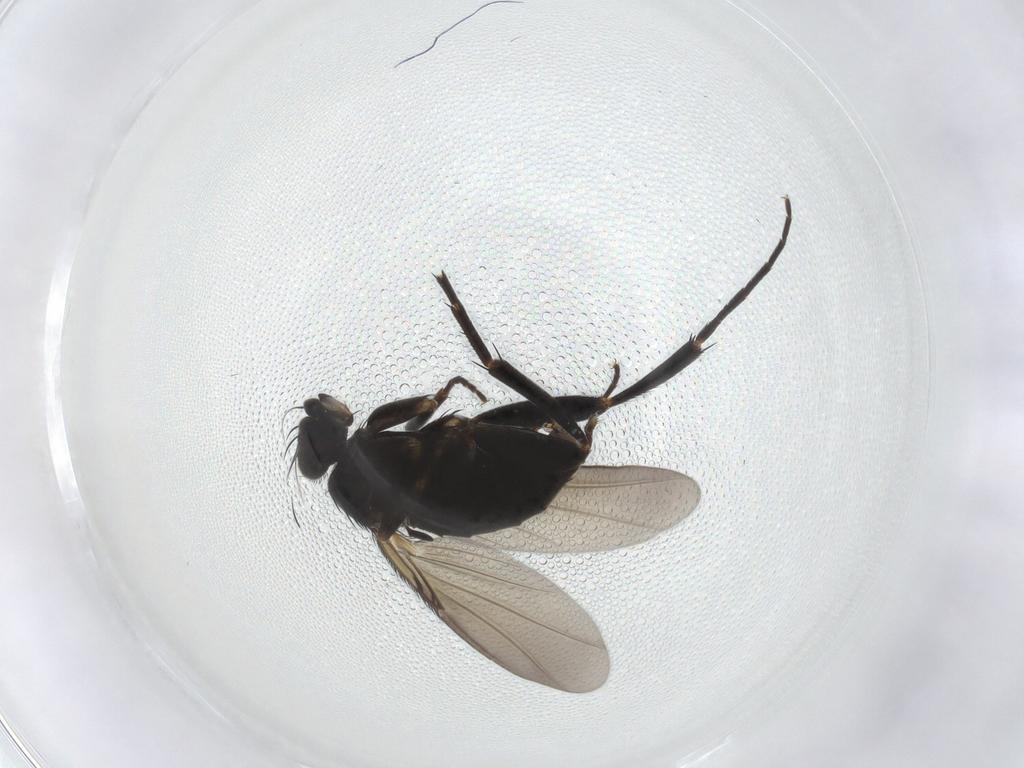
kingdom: Animalia
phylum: Arthropoda
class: Insecta
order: Diptera
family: Phoridae
